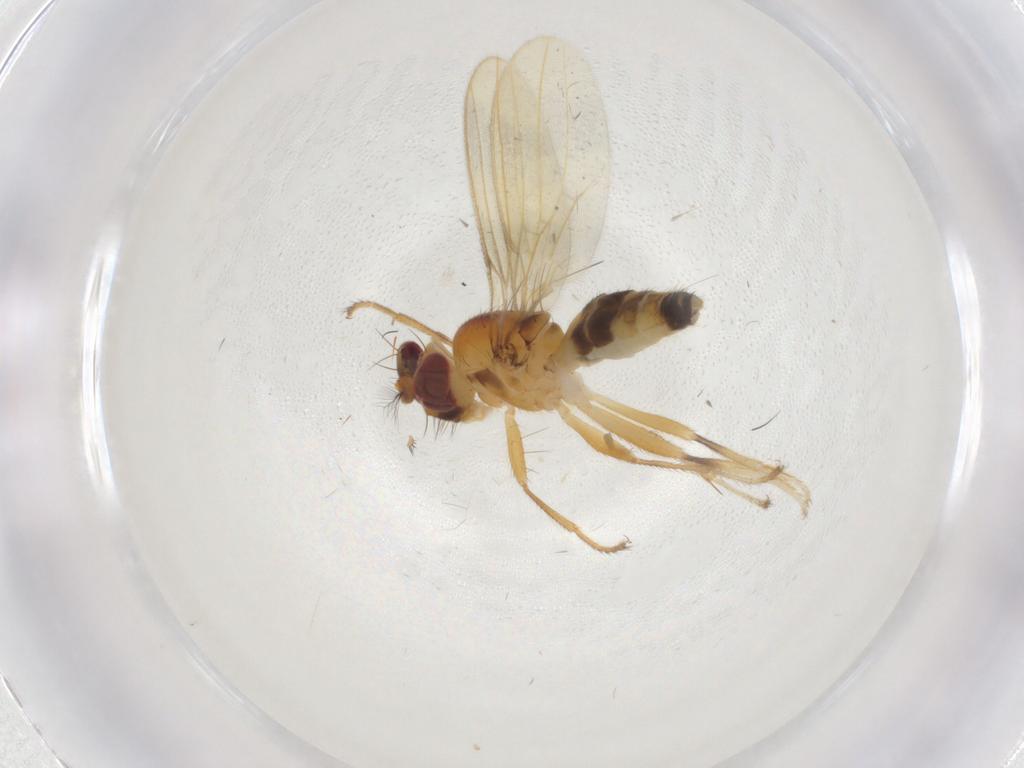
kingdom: Animalia
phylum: Arthropoda
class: Insecta
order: Diptera
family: Periscelididae
